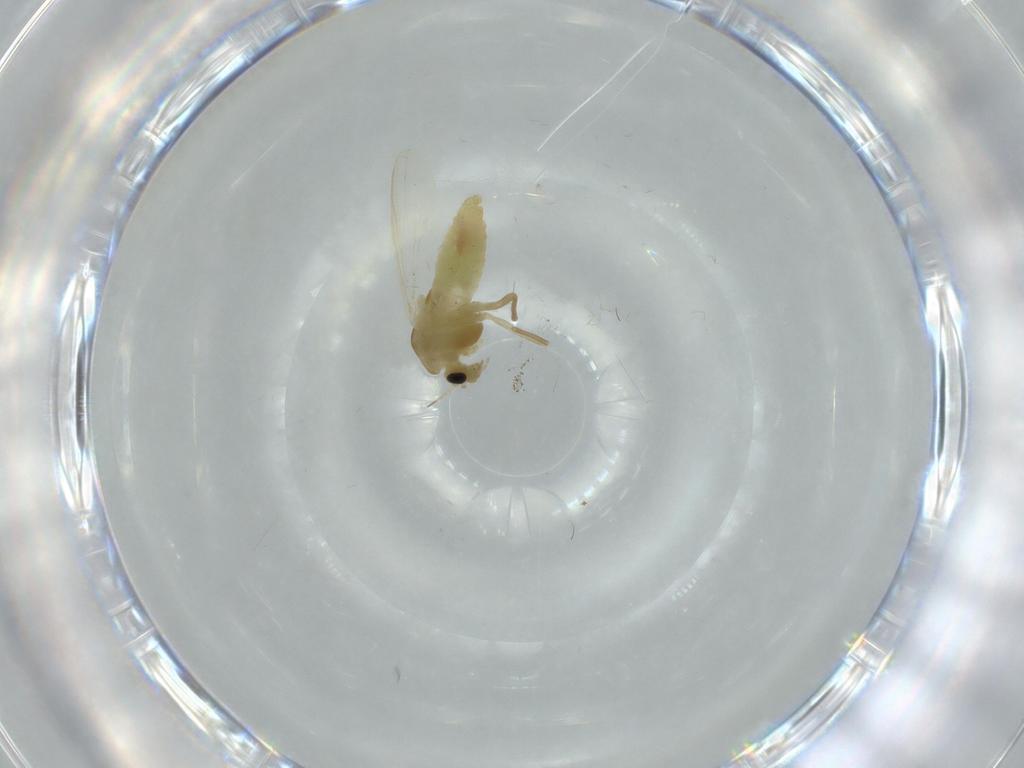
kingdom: Animalia
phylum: Arthropoda
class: Insecta
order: Diptera
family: Chironomidae
